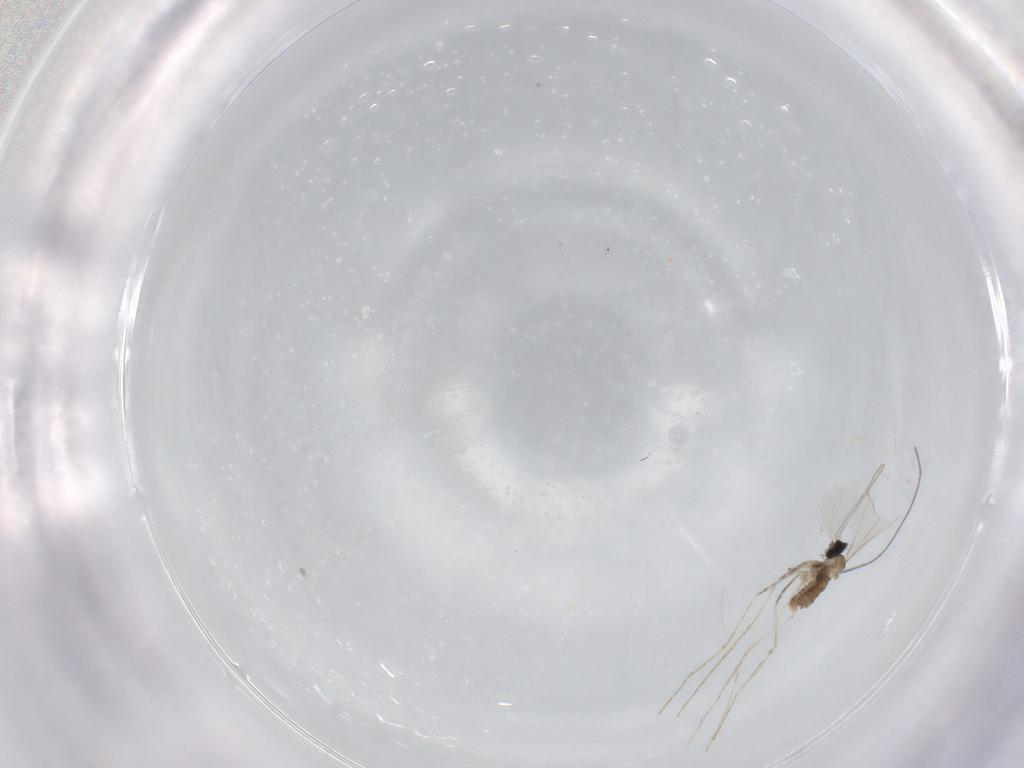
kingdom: Animalia
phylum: Arthropoda
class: Insecta
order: Diptera
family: Cecidomyiidae
